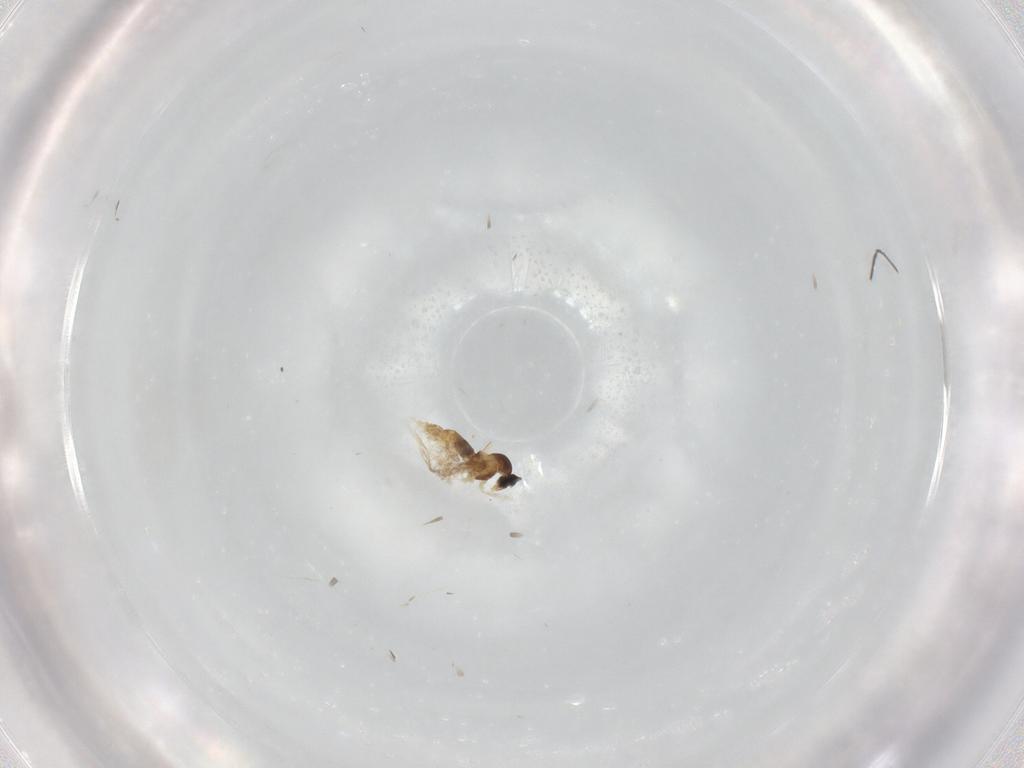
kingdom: Animalia
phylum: Arthropoda
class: Insecta
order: Diptera
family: Cecidomyiidae
